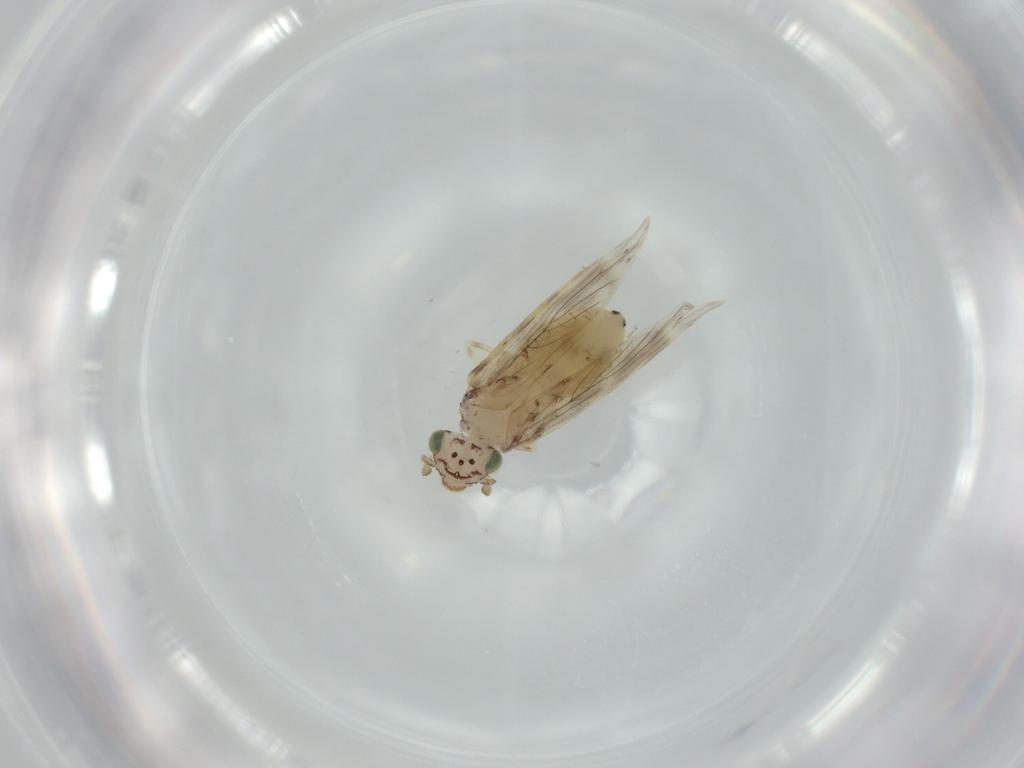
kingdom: Animalia
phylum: Arthropoda
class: Insecta
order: Psocodea
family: Lepidopsocidae
